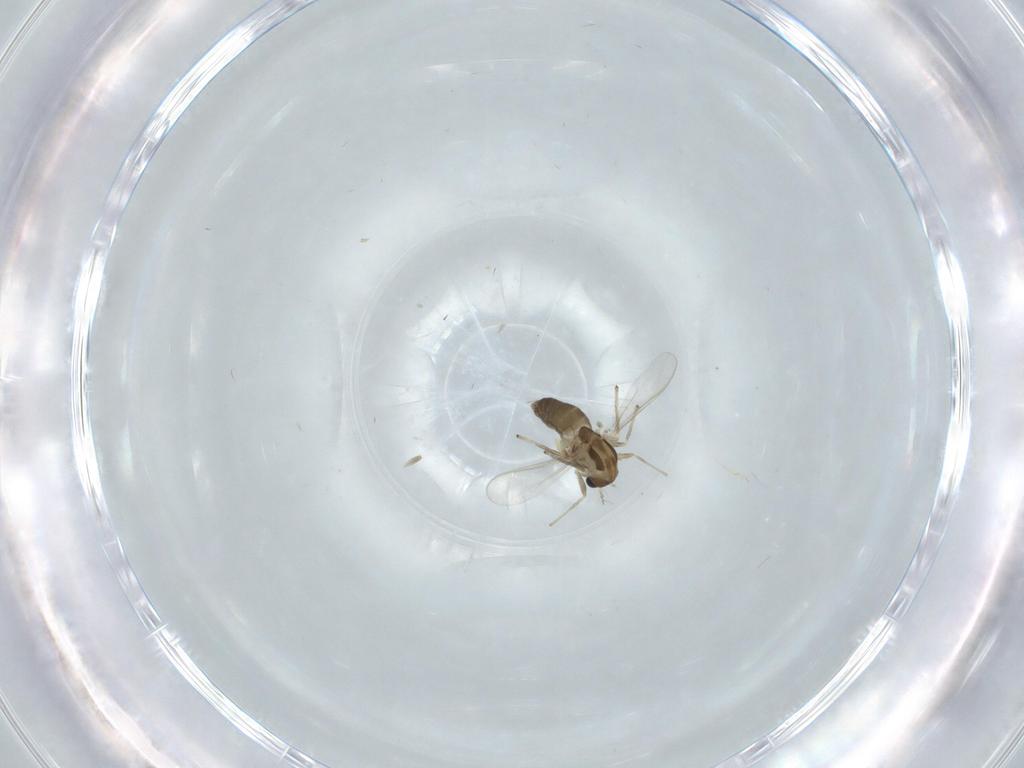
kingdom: Animalia
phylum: Arthropoda
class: Insecta
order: Diptera
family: Chironomidae
